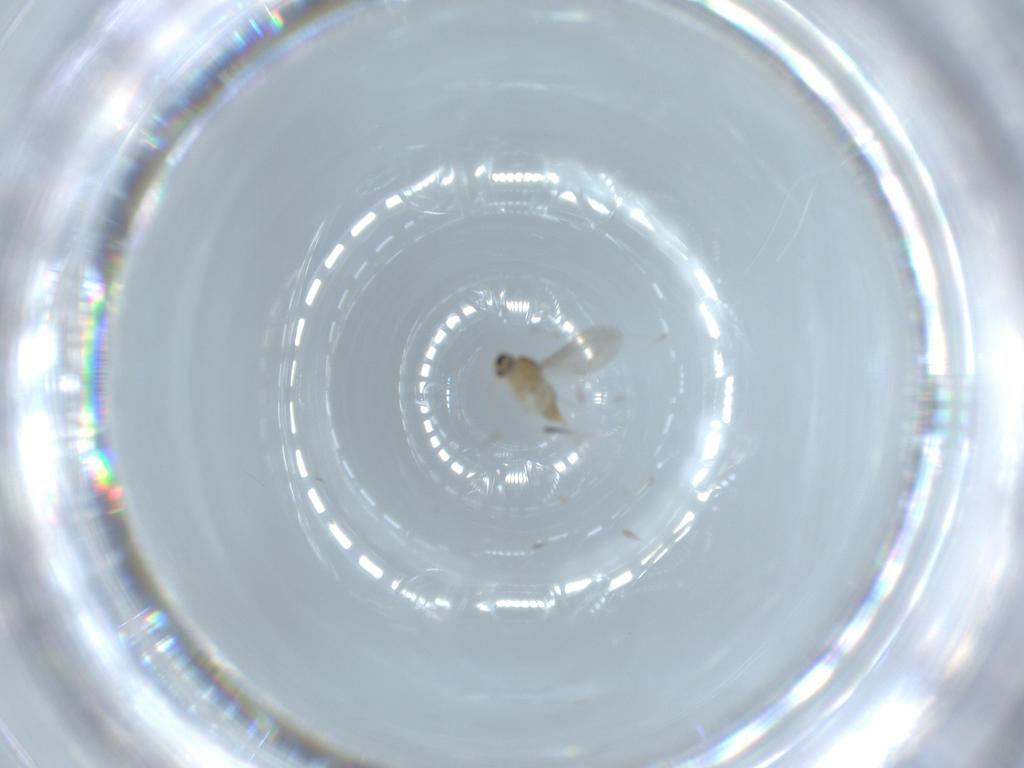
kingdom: Animalia
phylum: Arthropoda
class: Insecta
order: Diptera
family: Cecidomyiidae
